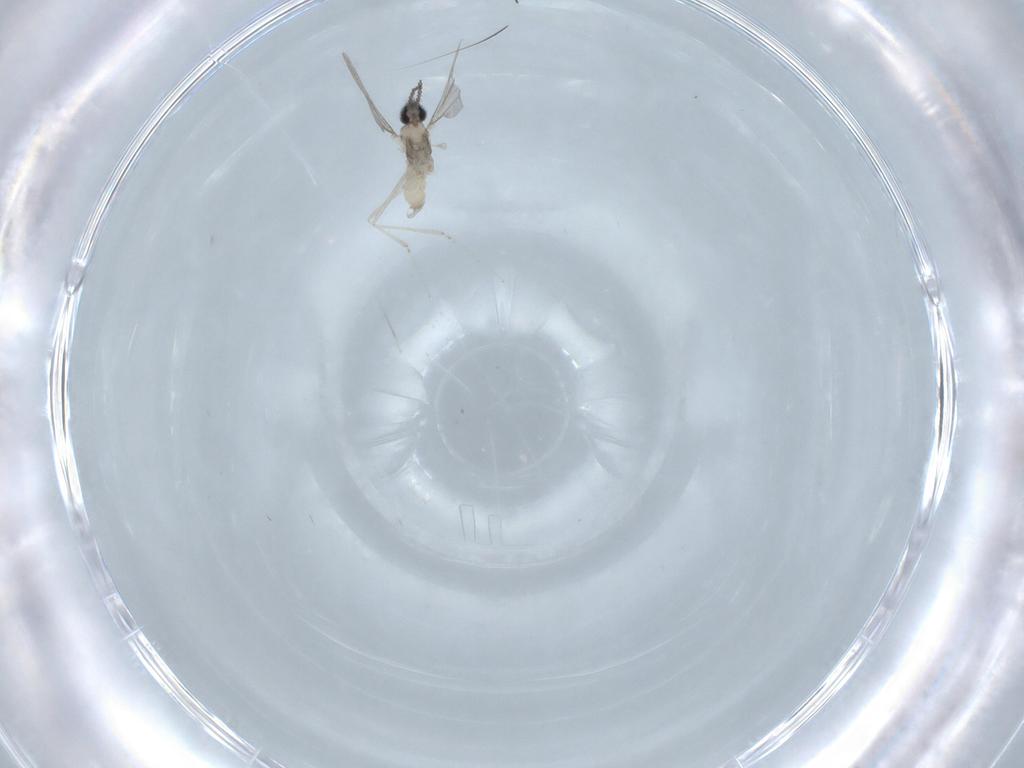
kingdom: Animalia
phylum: Arthropoda
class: Insecta
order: Diptera
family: Cecidomyiidae
